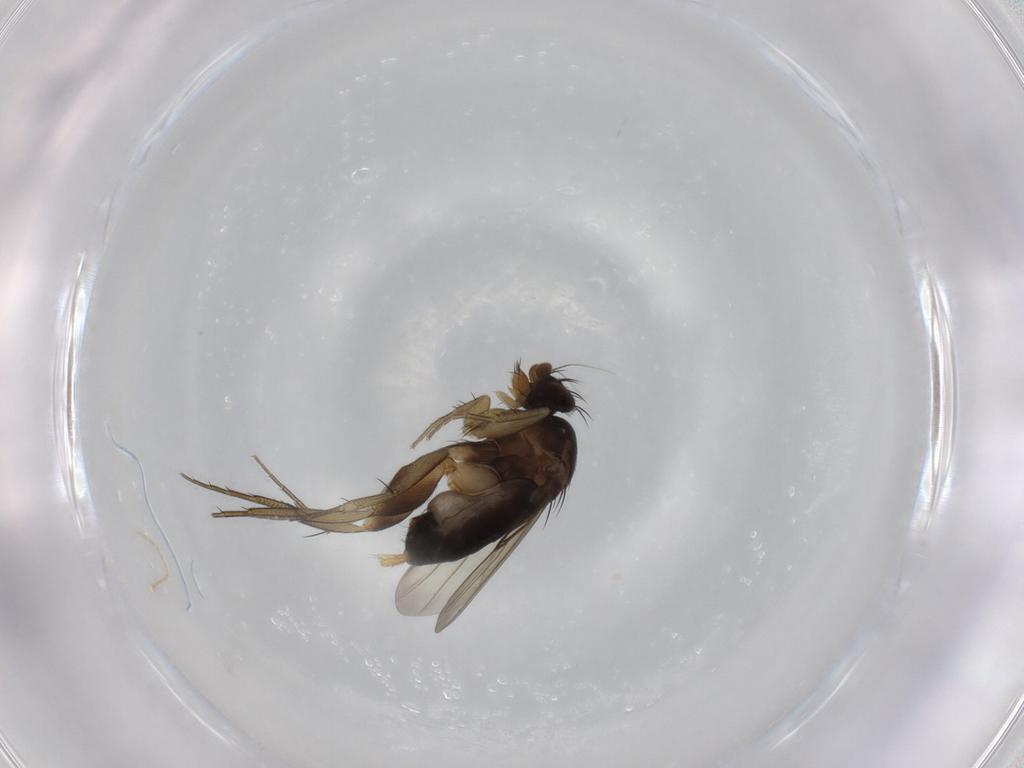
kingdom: Animalia
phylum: Arthropoda
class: Insecta
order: Diptera
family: Phoridae
